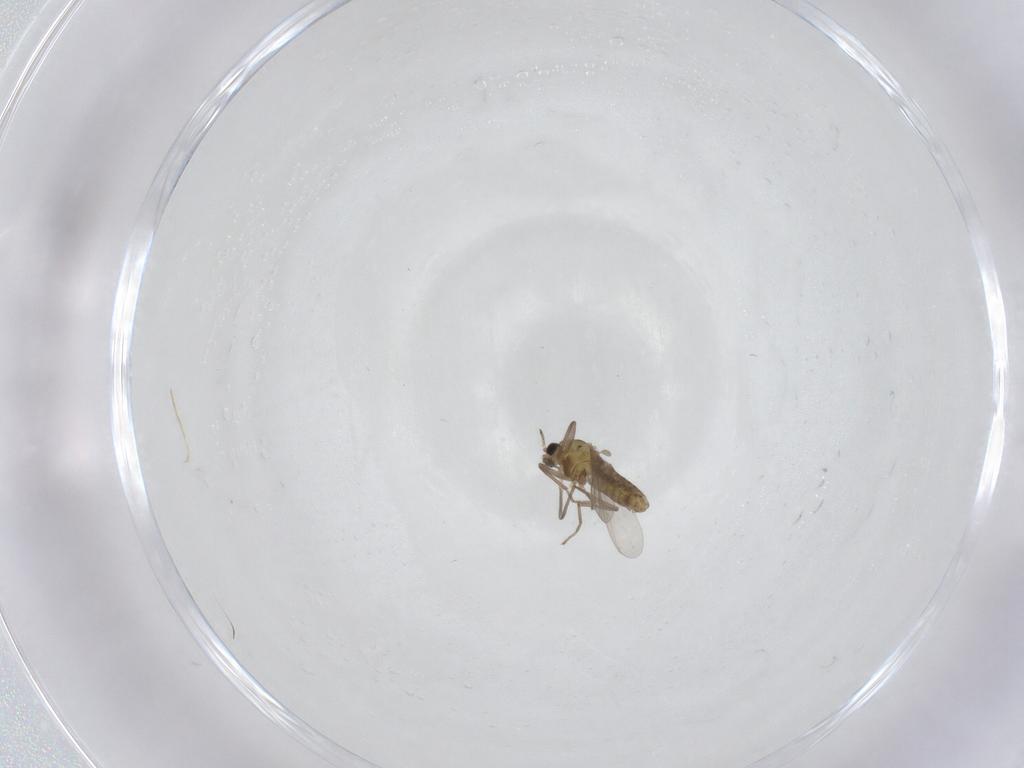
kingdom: Animalia
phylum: Arthropoda
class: Insecta
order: Diptera
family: Chironomidae
